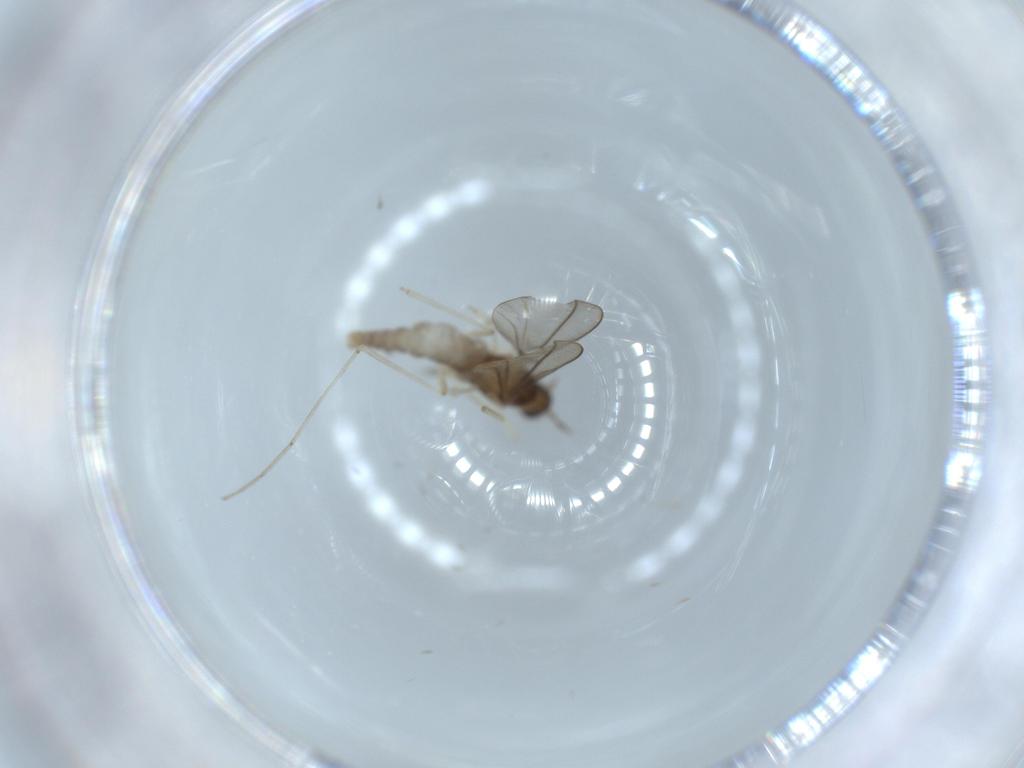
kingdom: Animalia
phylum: Arthropoda
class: Insecta
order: Diptera
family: Cecidomyiidae
